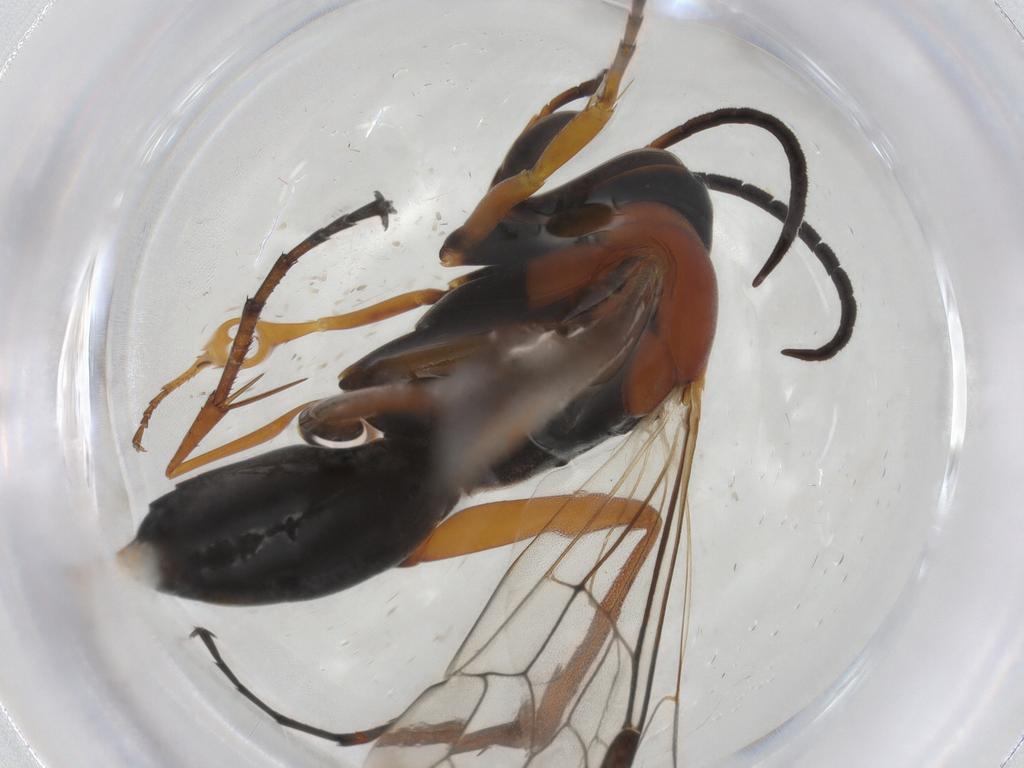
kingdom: Animalia
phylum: Arthropoda
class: Insecta
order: Hymenoptera
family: Pompilidae
